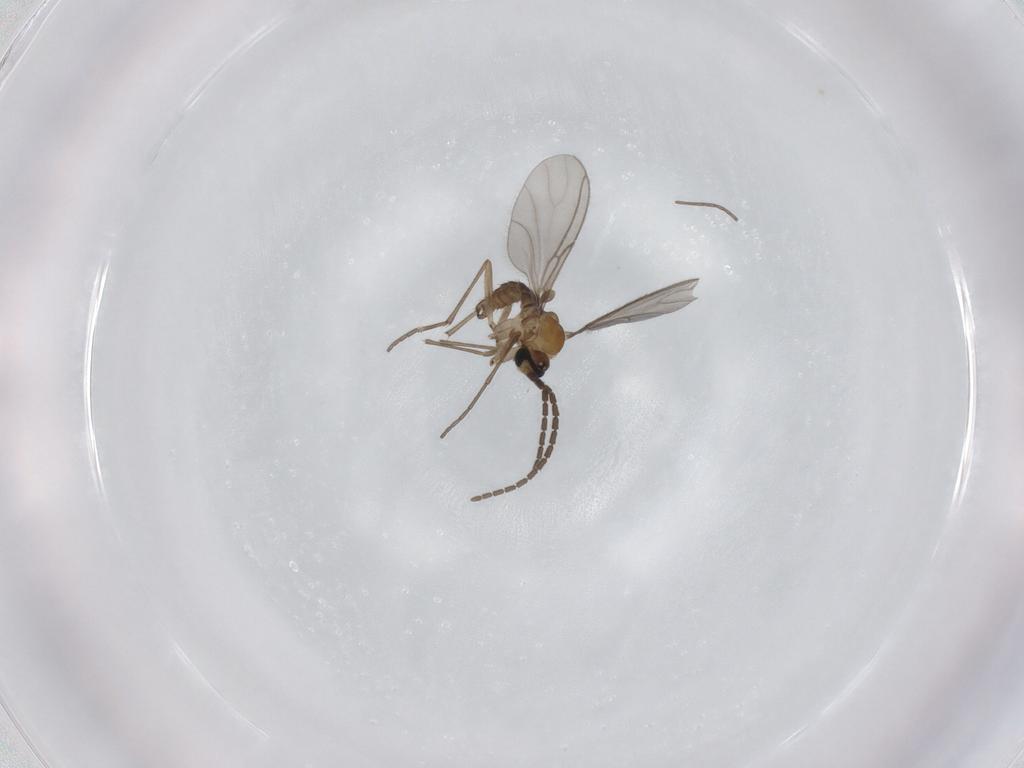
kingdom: Animalia
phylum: Arthropoda
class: Insecta
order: Diptera
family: Sciaridae
